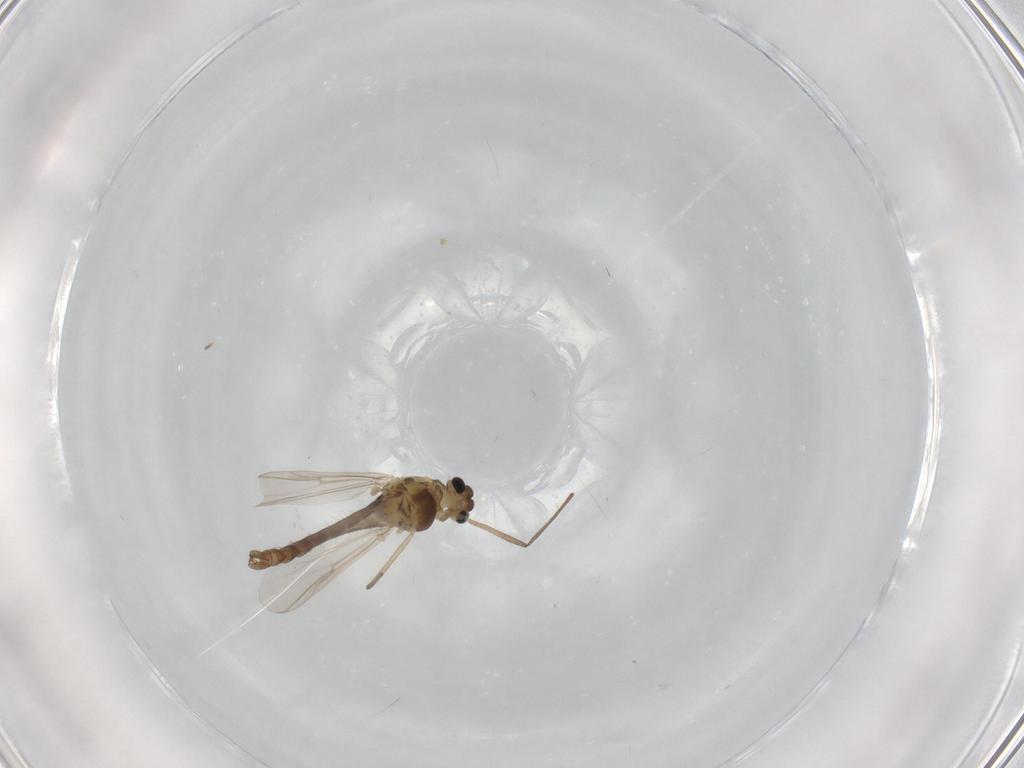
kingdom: Animalia
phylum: Arthropoda
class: Insecta
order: Diptera
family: Chironomidae
